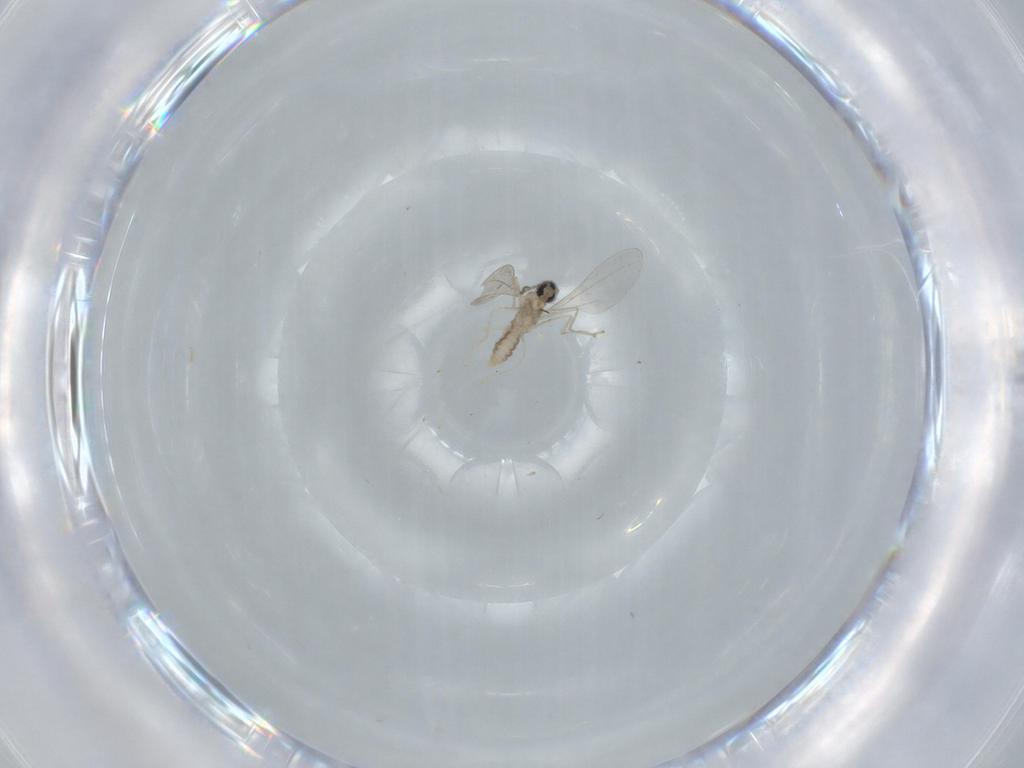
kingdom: Animalia
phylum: Arthropoda
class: Insecta
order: Diptera
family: Cecidomyiidae
